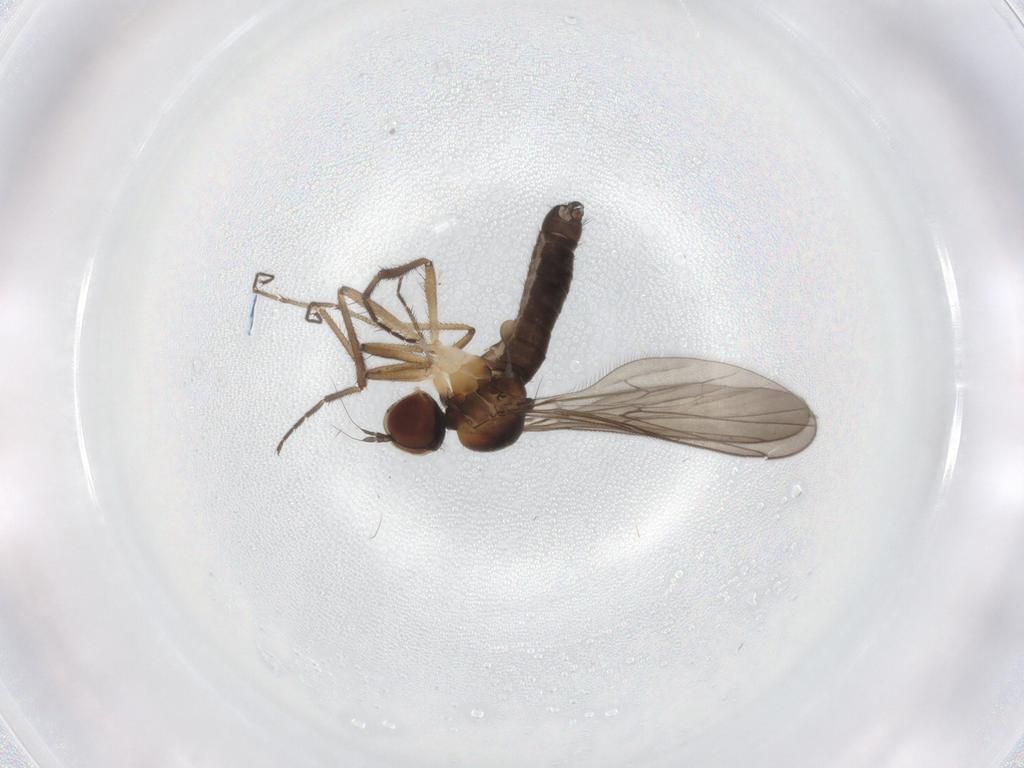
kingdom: Animalia
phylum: Arthropoda
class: Insecta
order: Diptera
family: Hybotidae
